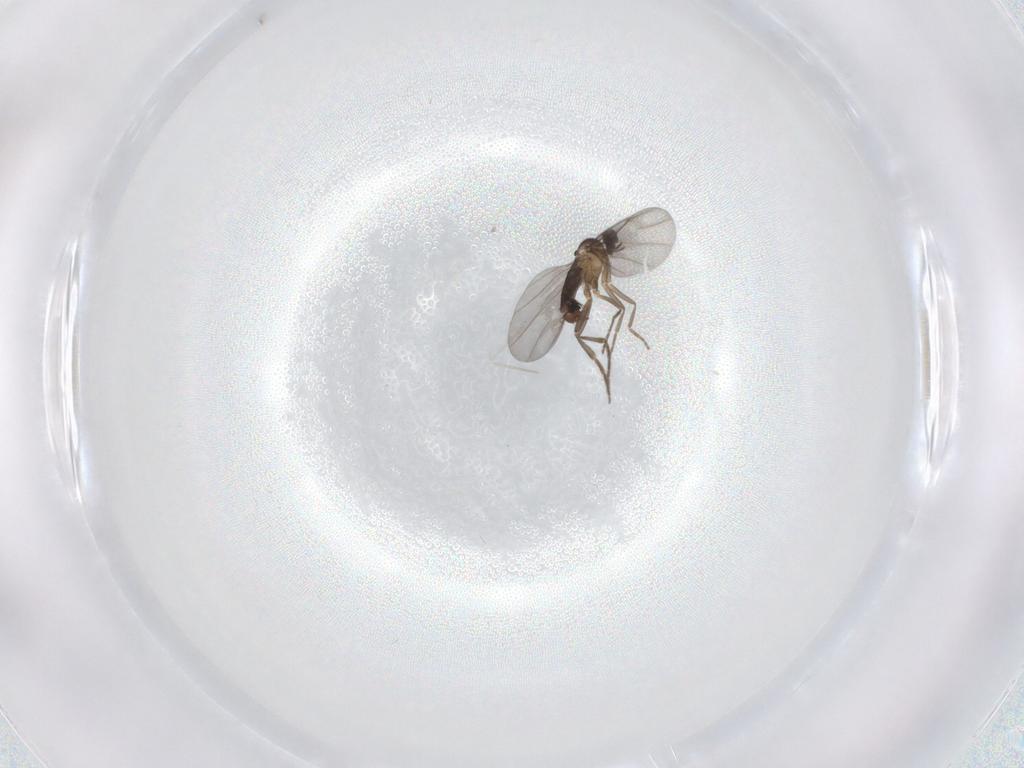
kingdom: Animalia
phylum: Arthropoda
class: Insecta
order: Diptera
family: Phoridae
